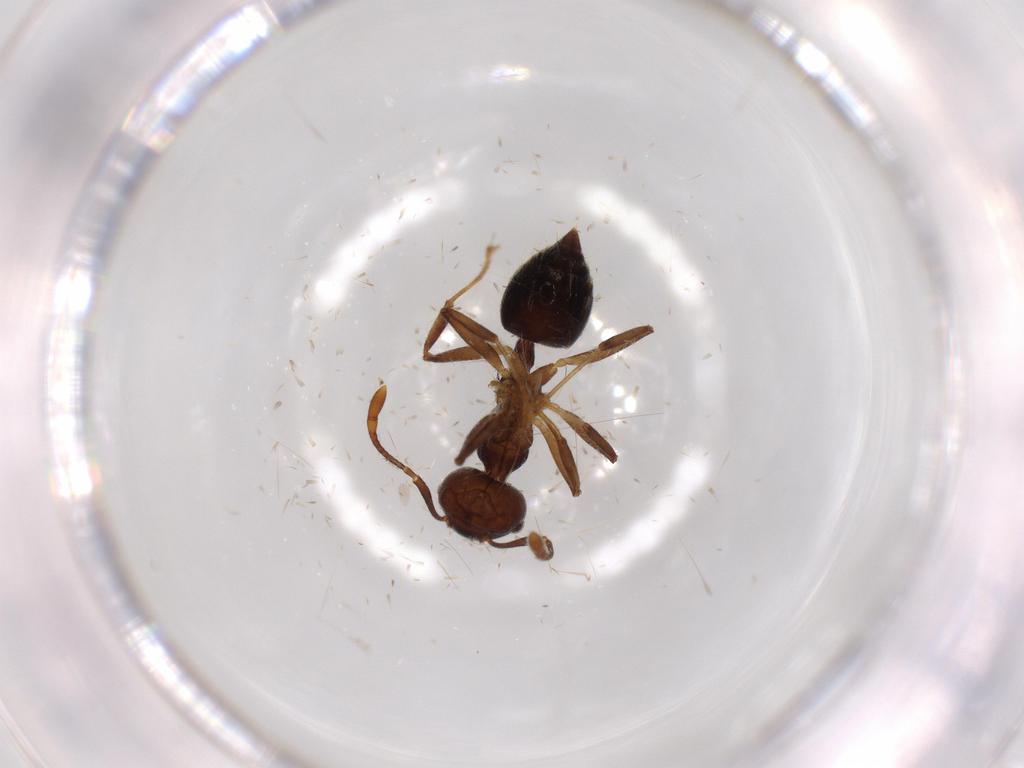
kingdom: Animalia
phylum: Arthropoda
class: Insecta
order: Hymenoptera
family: Formicidae
